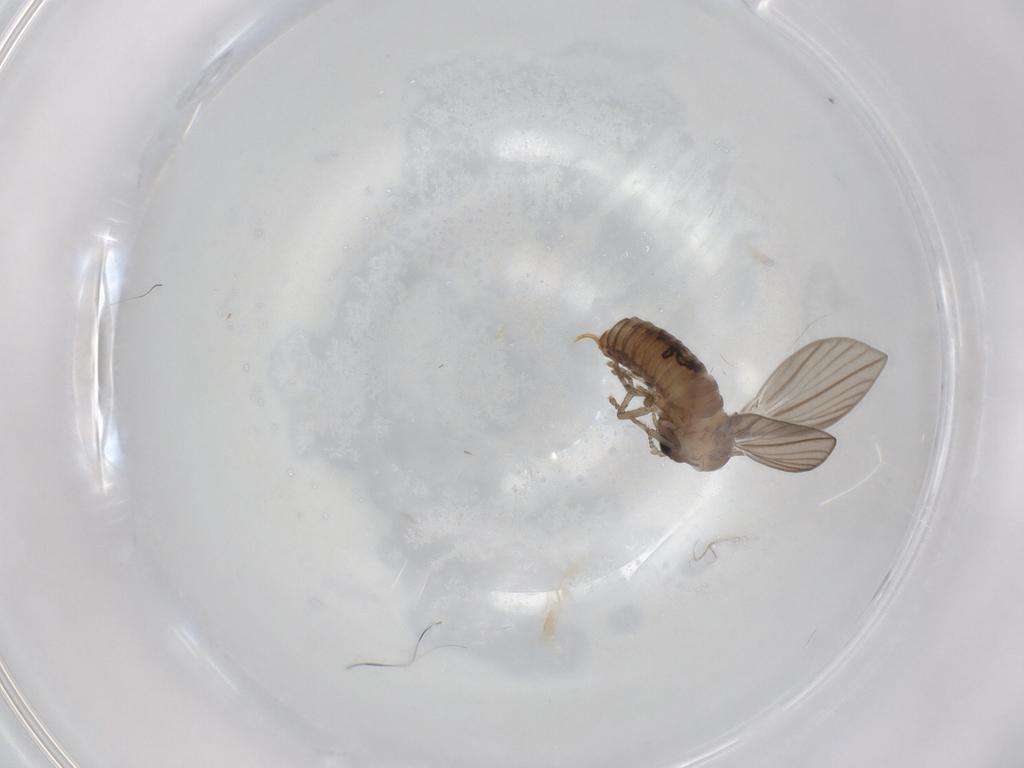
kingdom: Animalia
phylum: Arthropoda
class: Insecta
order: Diptera
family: Psychodidae
